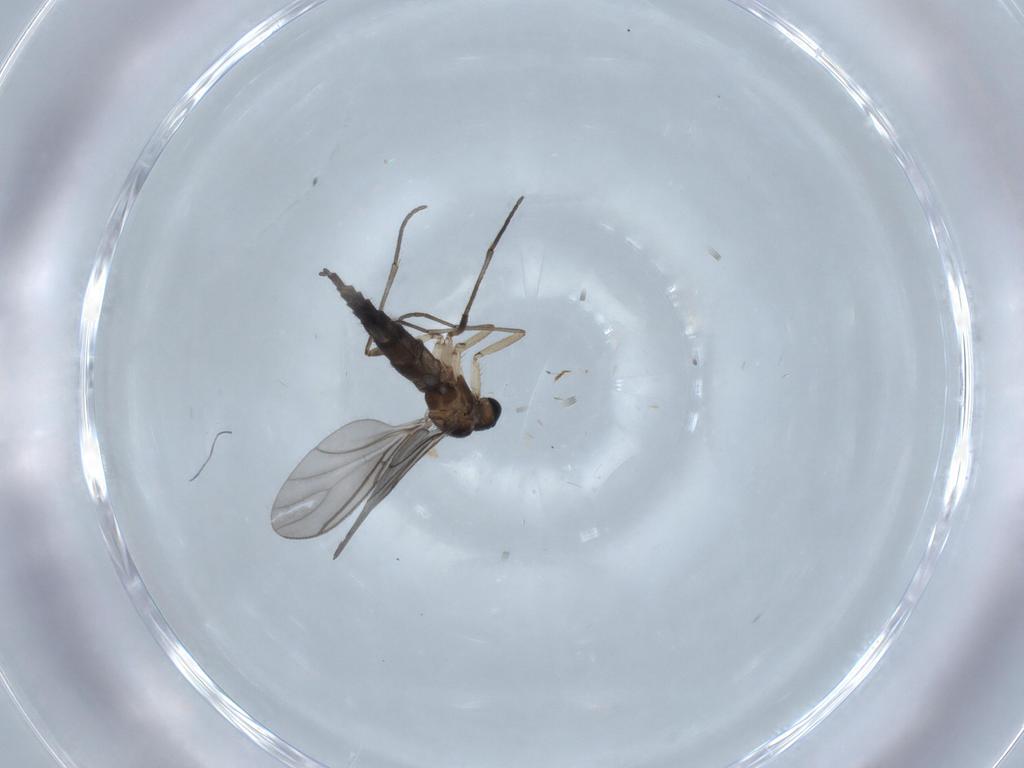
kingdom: Animalia
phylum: Arthropoda
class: Insecta
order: Diptera
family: Sciaridae
